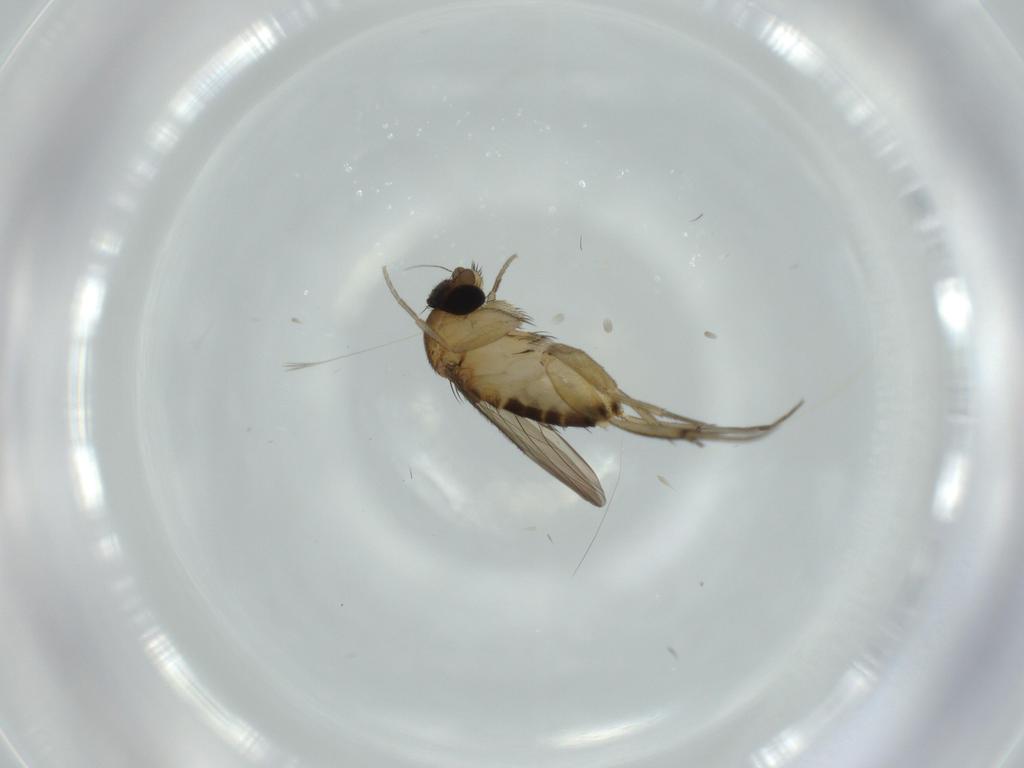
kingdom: Animalia
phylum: Arthropoda
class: Insecta
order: Diptera
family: Phoridae
